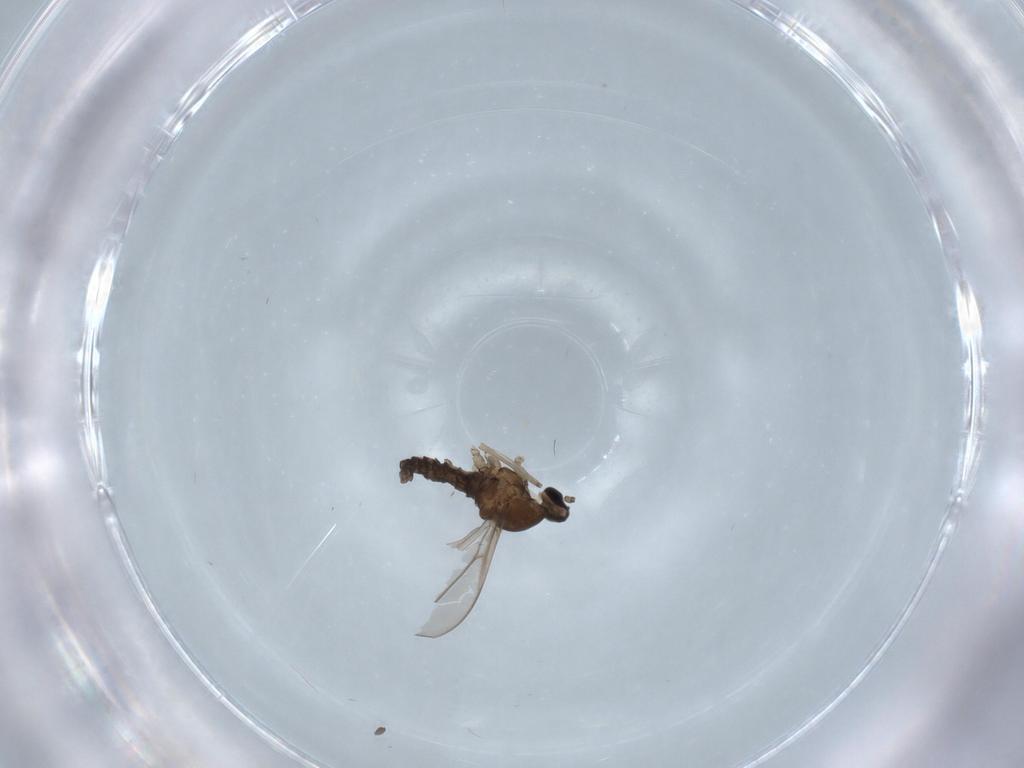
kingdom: Animalia
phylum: Arthropoda
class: Insecta
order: Diptera
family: Cecidomyiidae
